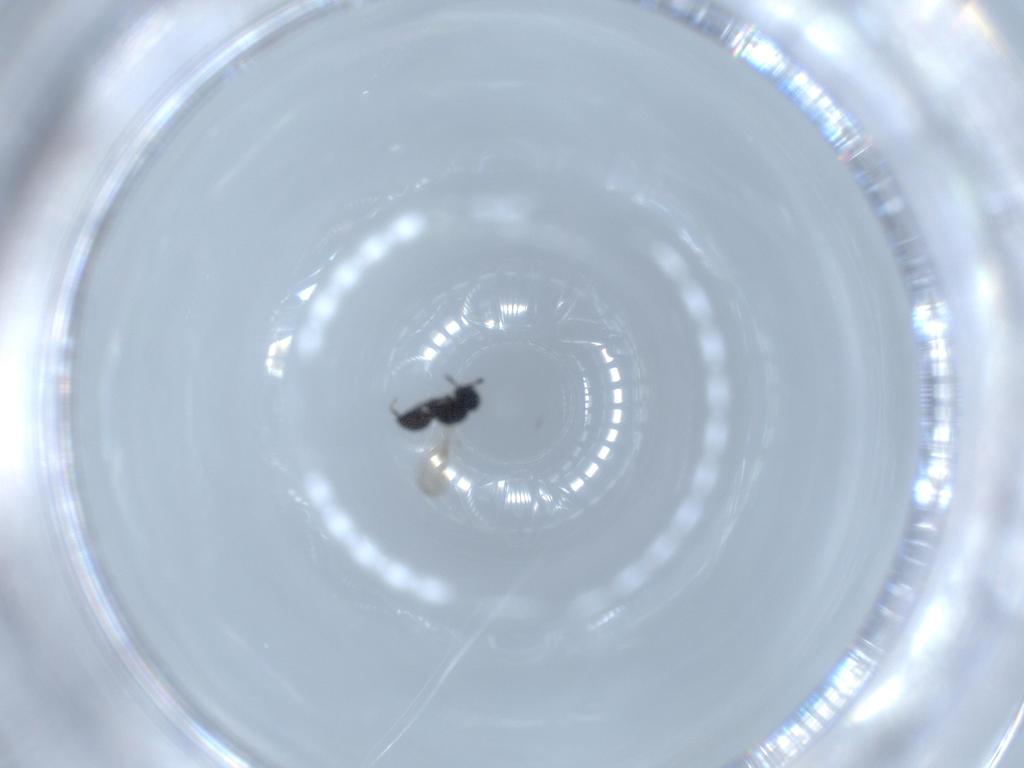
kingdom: Animalia
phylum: Arthropoda
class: Insecta
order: Hymenoptera
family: Scelionidae
